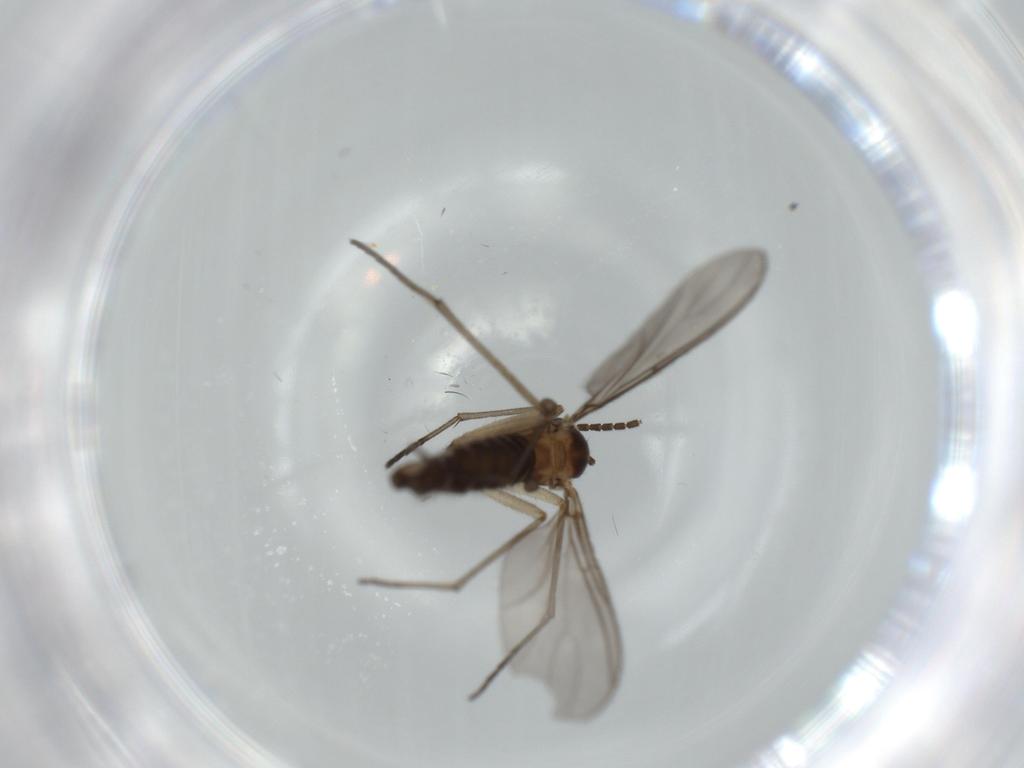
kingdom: Animalia
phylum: Arthropoda
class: Insecta
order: Diptera
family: Sciaridae
